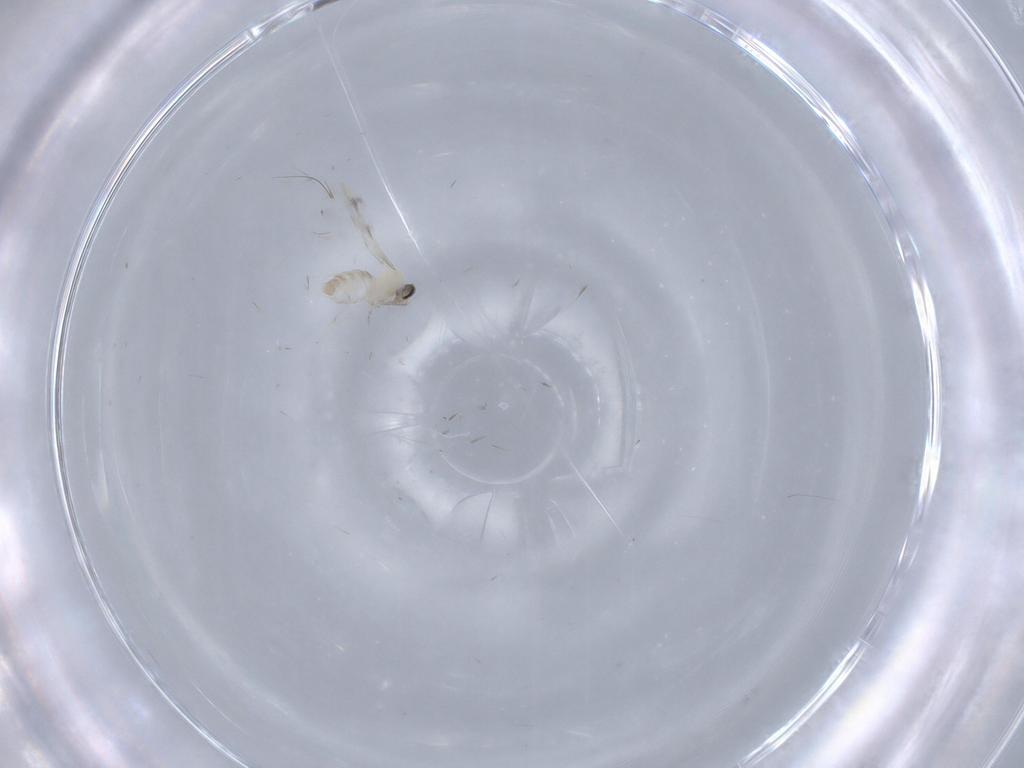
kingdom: Animalia
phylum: Arthropoda
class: Insecta
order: Diptera
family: Cecidomyiidae
